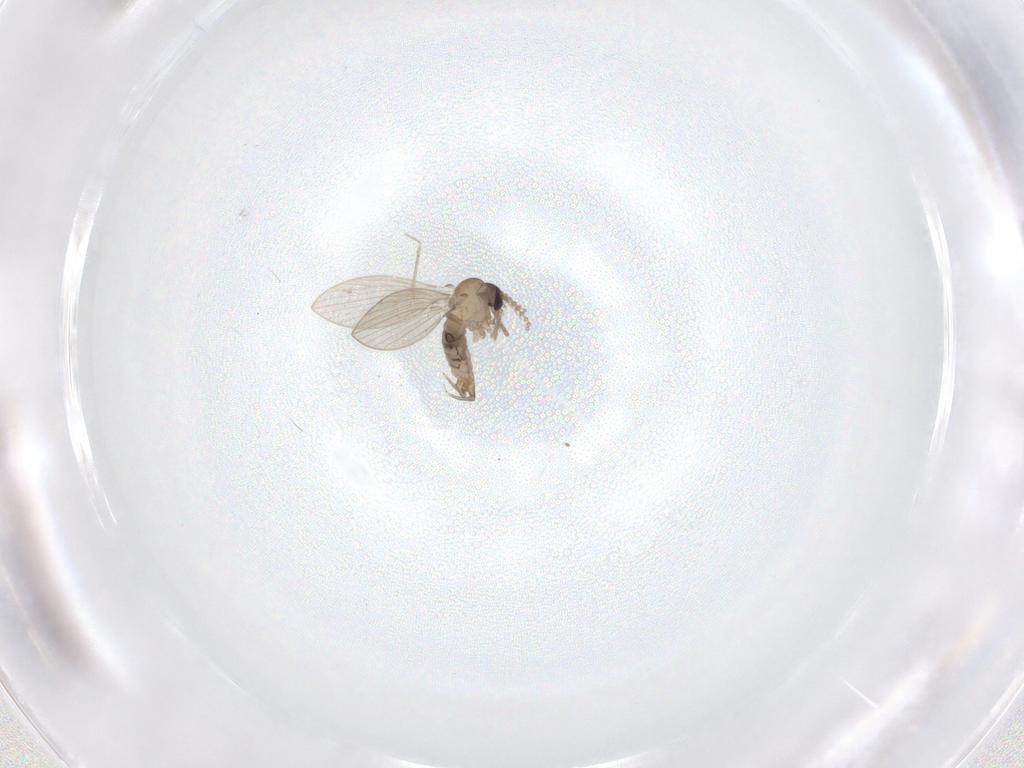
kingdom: Animalia
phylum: Arthropoda
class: Insecta
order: Diptera
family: Psychodidae
